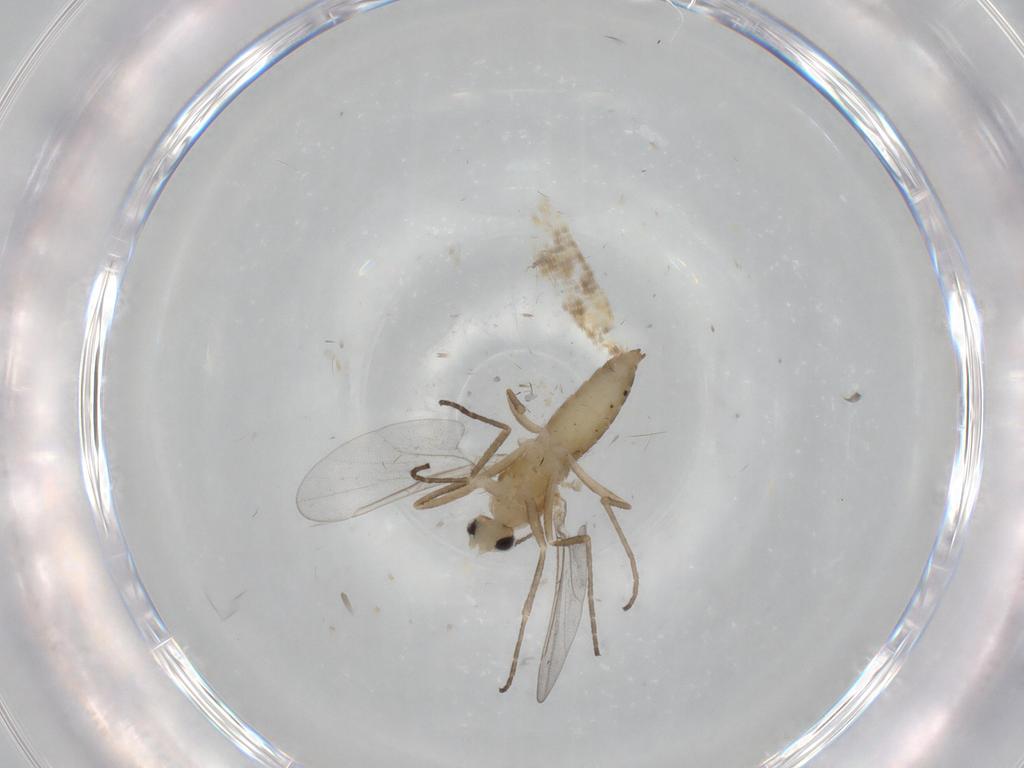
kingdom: Animalia
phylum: Arthropoda
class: Insecta
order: Diptera
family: Cecidomyiidae
